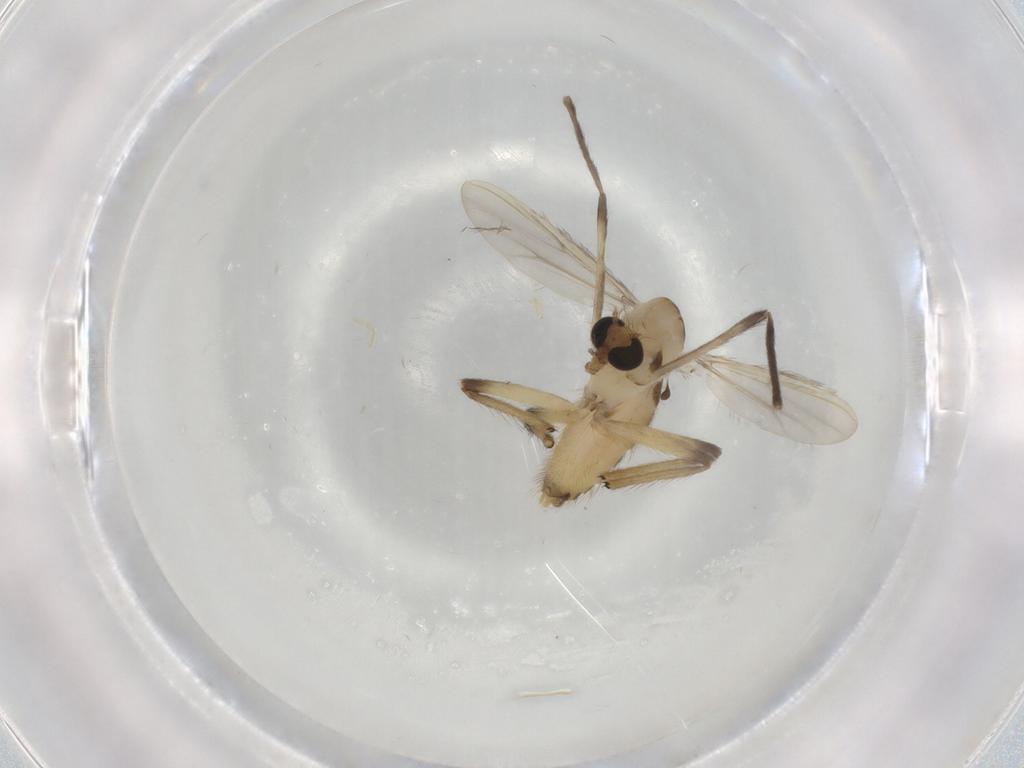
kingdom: Animalia
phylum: Arthropoda
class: Insecta
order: Diptera
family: Chironomidae
